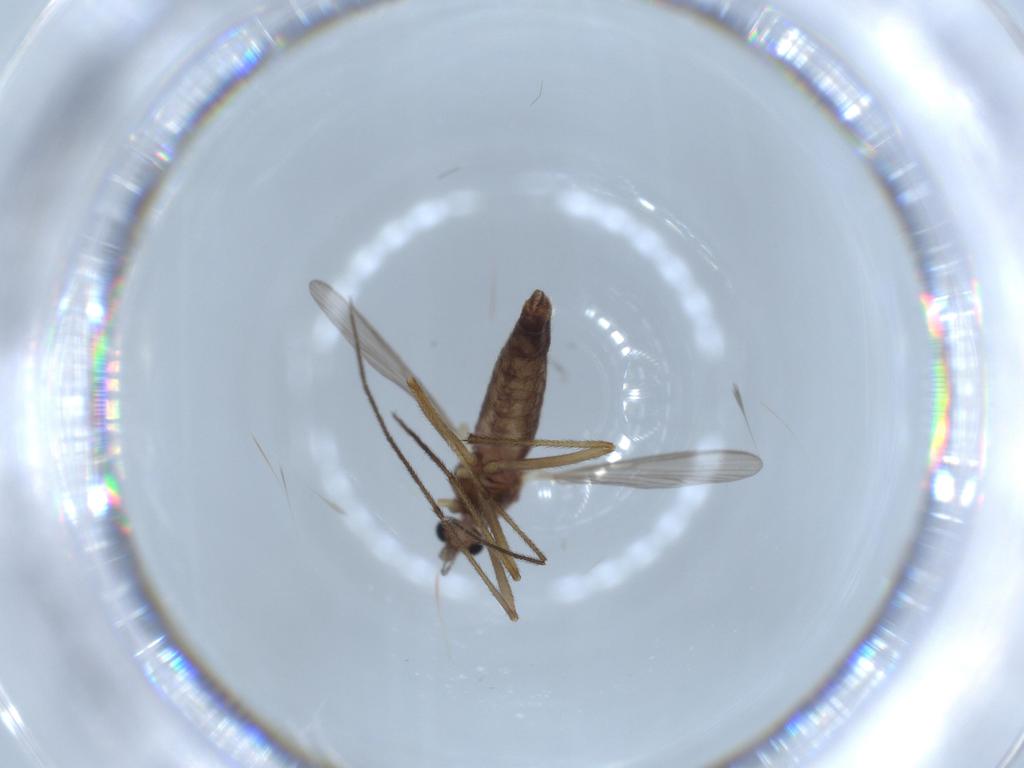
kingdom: Animalia
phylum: Arthropoda
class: Insecta
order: Diptera
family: Chironomidae
